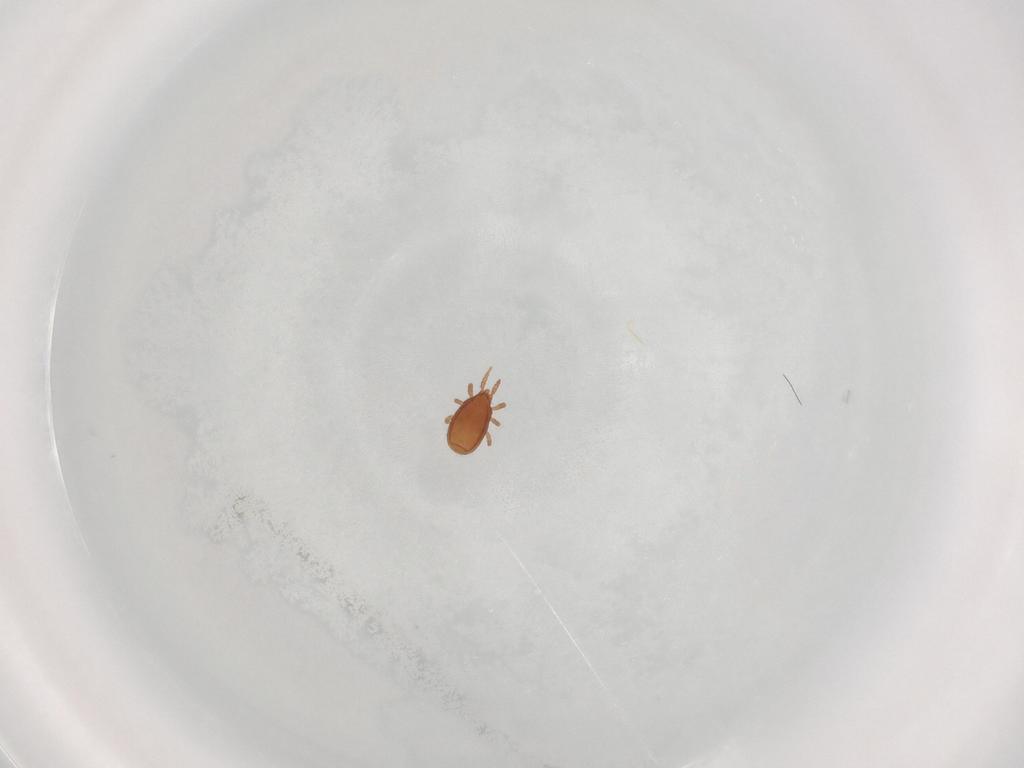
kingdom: Animalia
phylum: Arthropoda
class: Arachnida
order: Mesostigmata
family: Dinychidae
